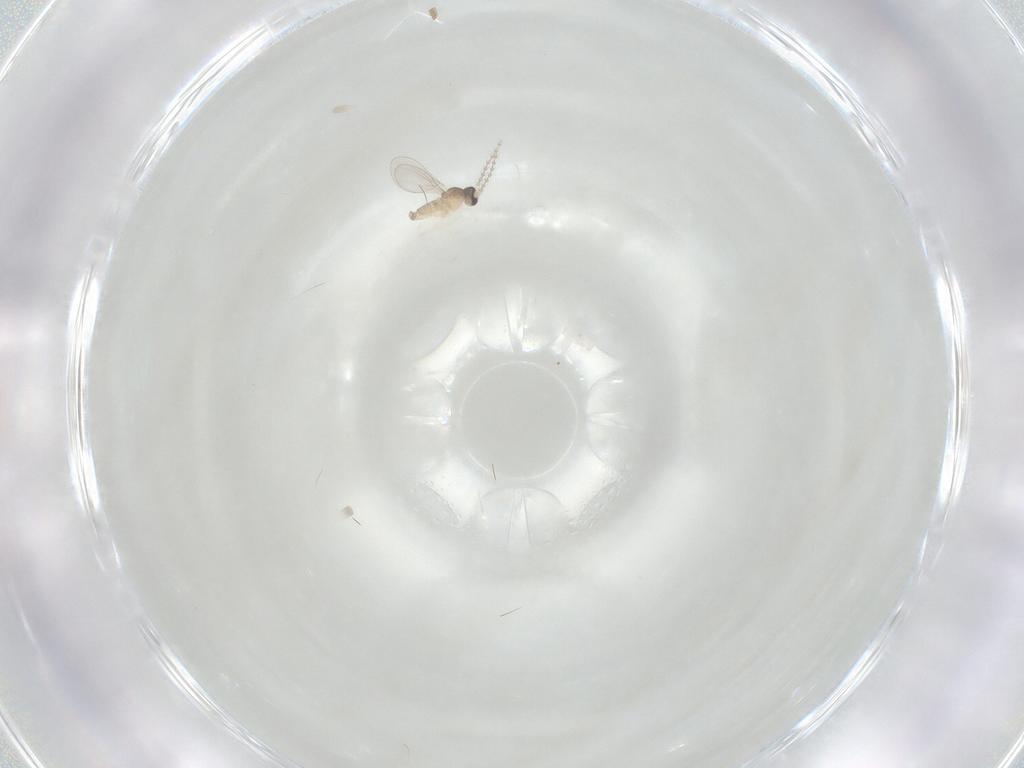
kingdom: Animalia
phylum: Arthropoda
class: Insecta
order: Diptera
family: Cecidomyiidae
